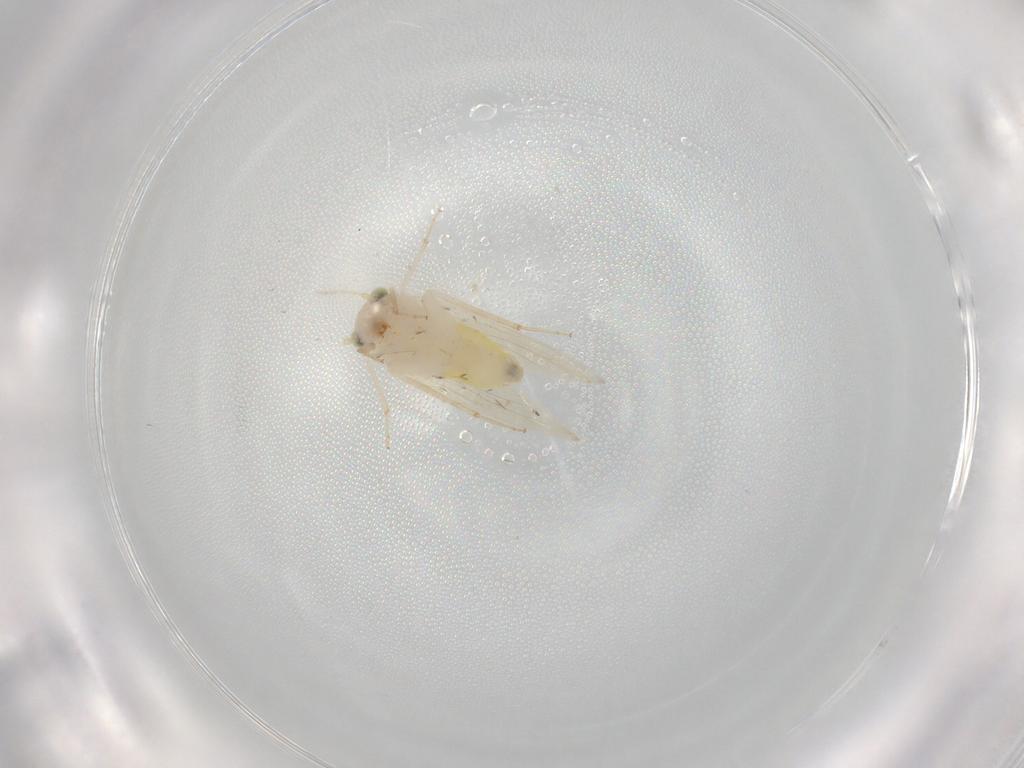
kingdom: Animalia
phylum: Arthropoda
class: Insecta
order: Psocodea
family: Lepidopsocidae
